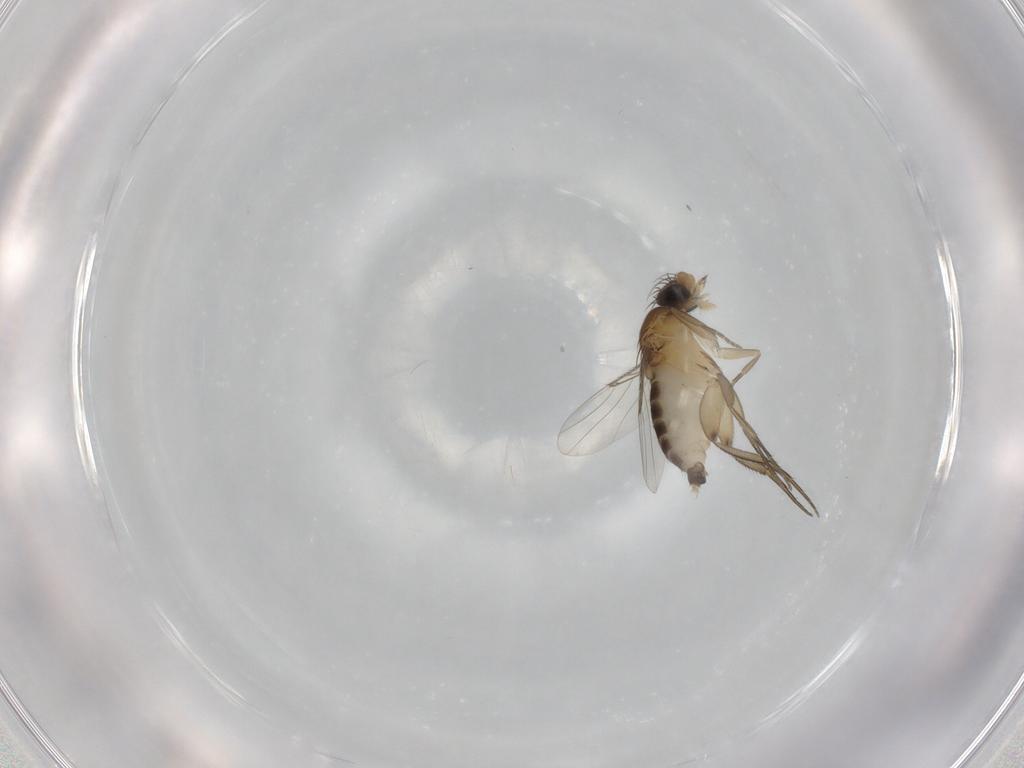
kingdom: Animalia
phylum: Arthropoda
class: Insecta
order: Diptera
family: Phoridae
